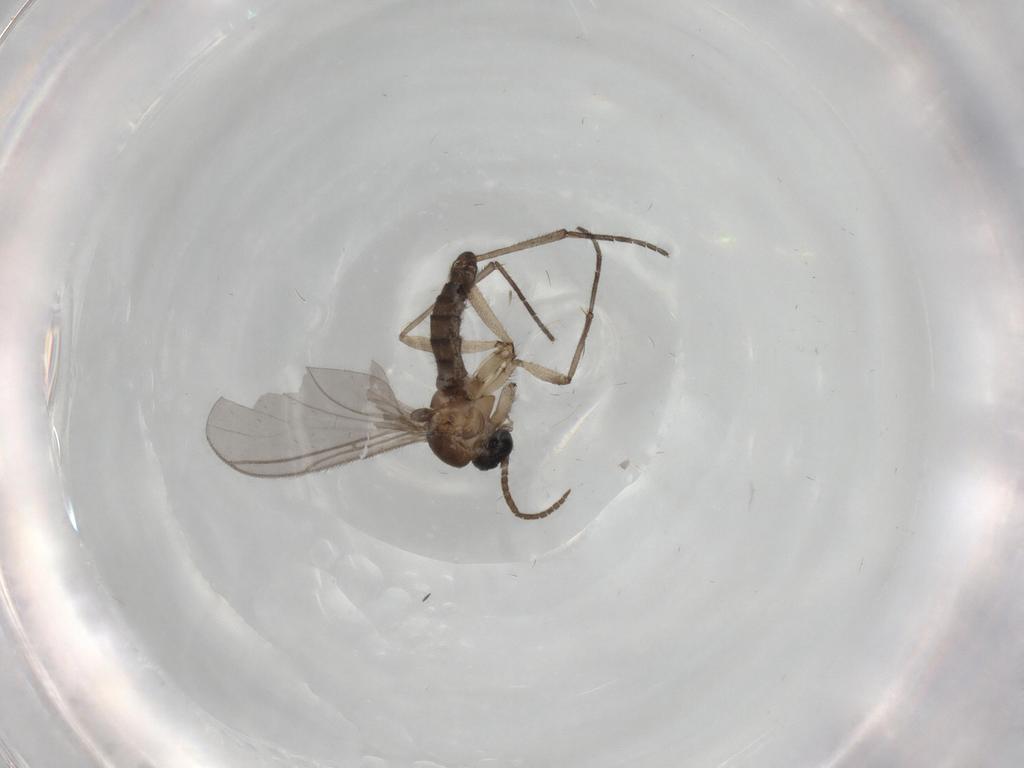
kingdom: Animalia
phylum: Arthropoda
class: Insecta
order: Diptera
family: Sciaridae
